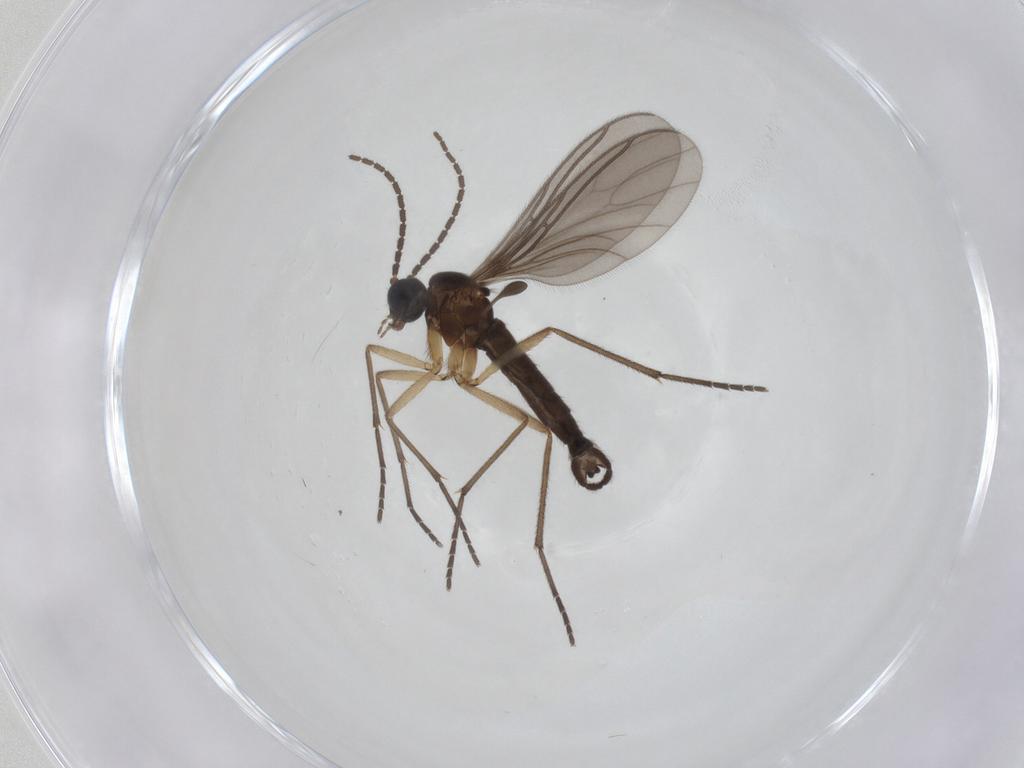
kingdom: Animalia
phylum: Arthropoda
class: Insecta
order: Diptera
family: Sciaridae
